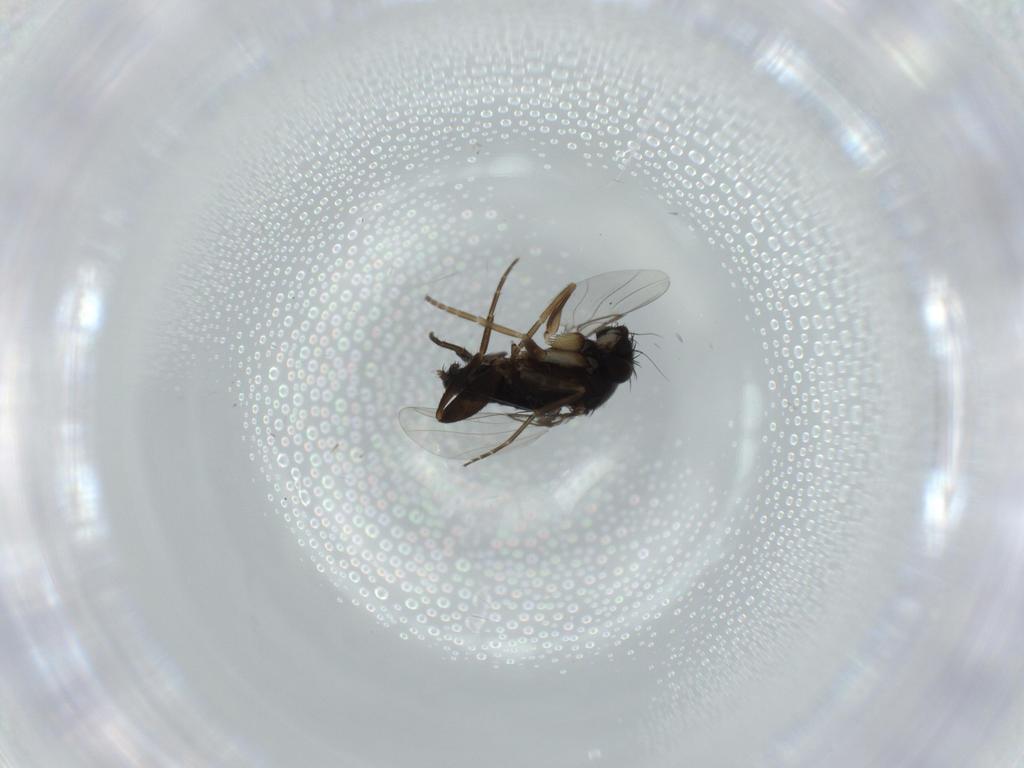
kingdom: Animalia
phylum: Arthropoda
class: Insecta
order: Diptera
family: Phoridae
